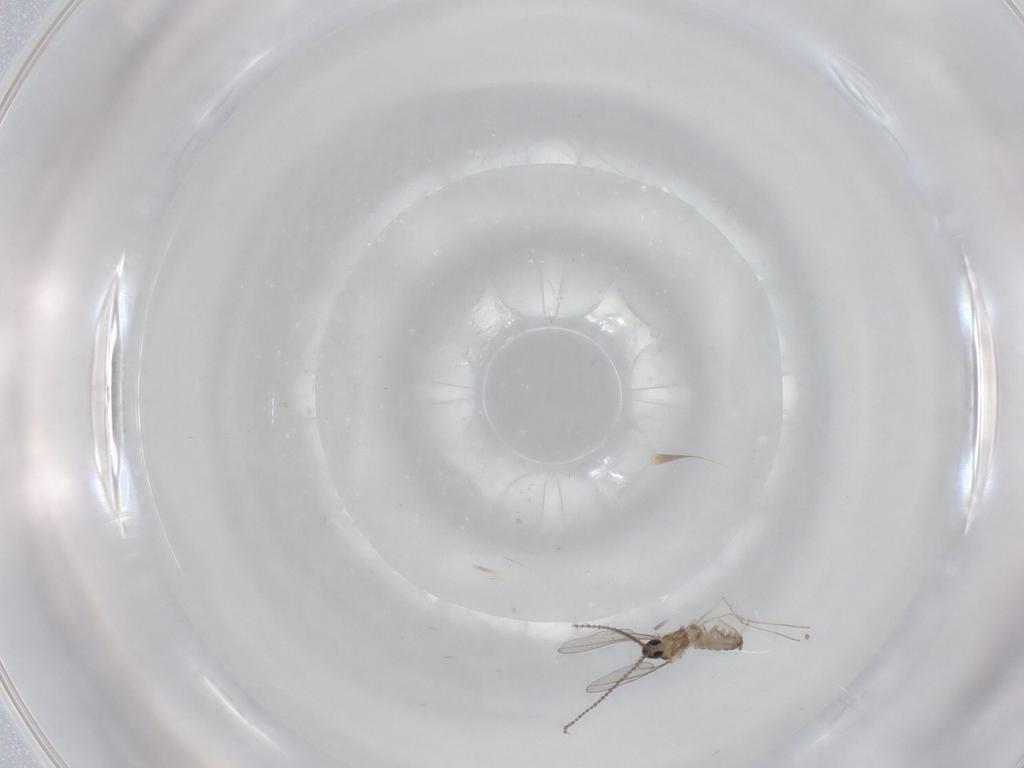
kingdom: Animalia
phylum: Arthropoda
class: Insecta
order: Diptera
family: Cecidomyiidae
